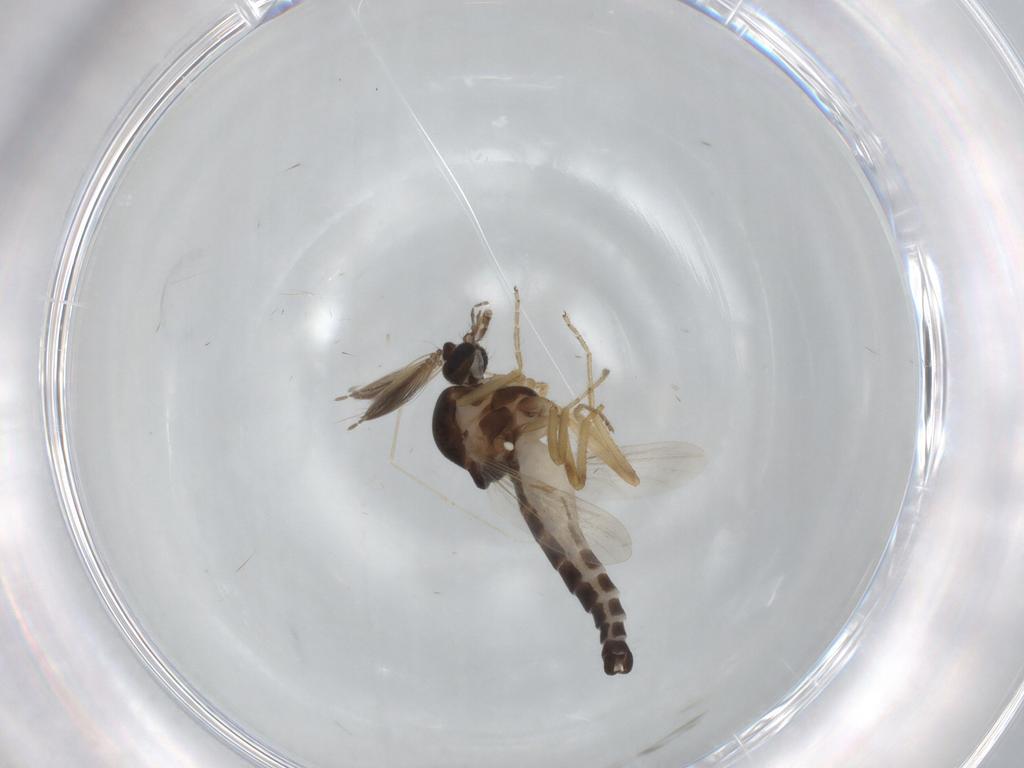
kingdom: Animalia
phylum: Arthropoda
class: Insecta
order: Diptera
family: Ceratopogonidae
